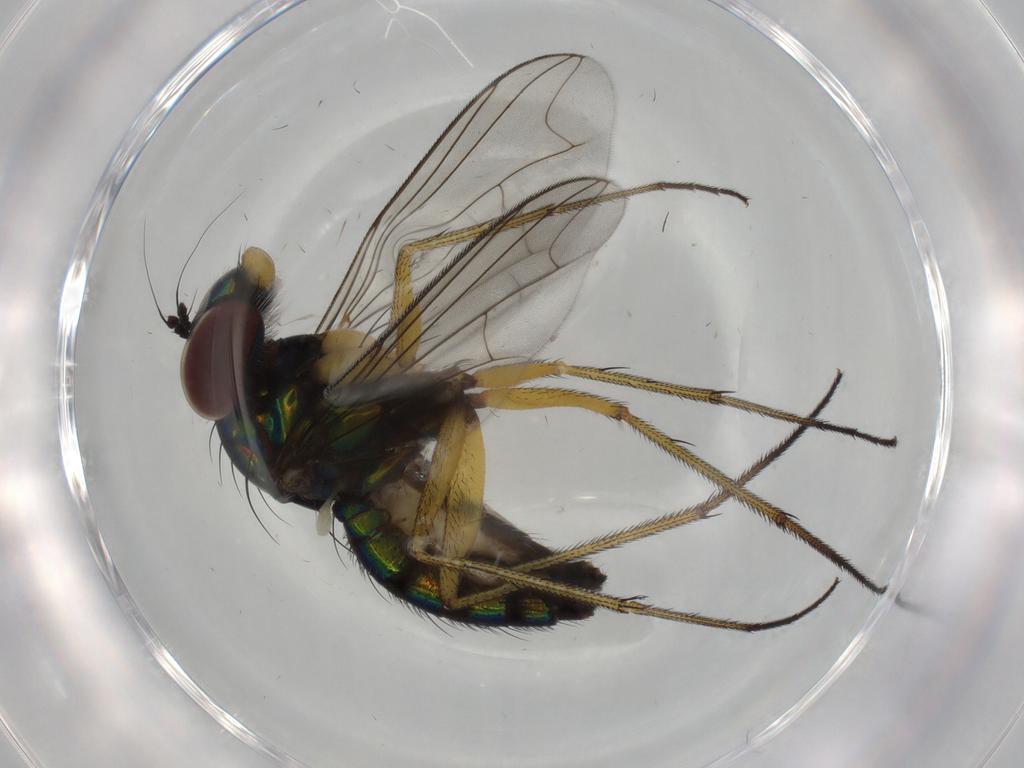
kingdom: Animalia
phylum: Arthropoda
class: Insecta
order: Diptera
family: Dolichopodidae
